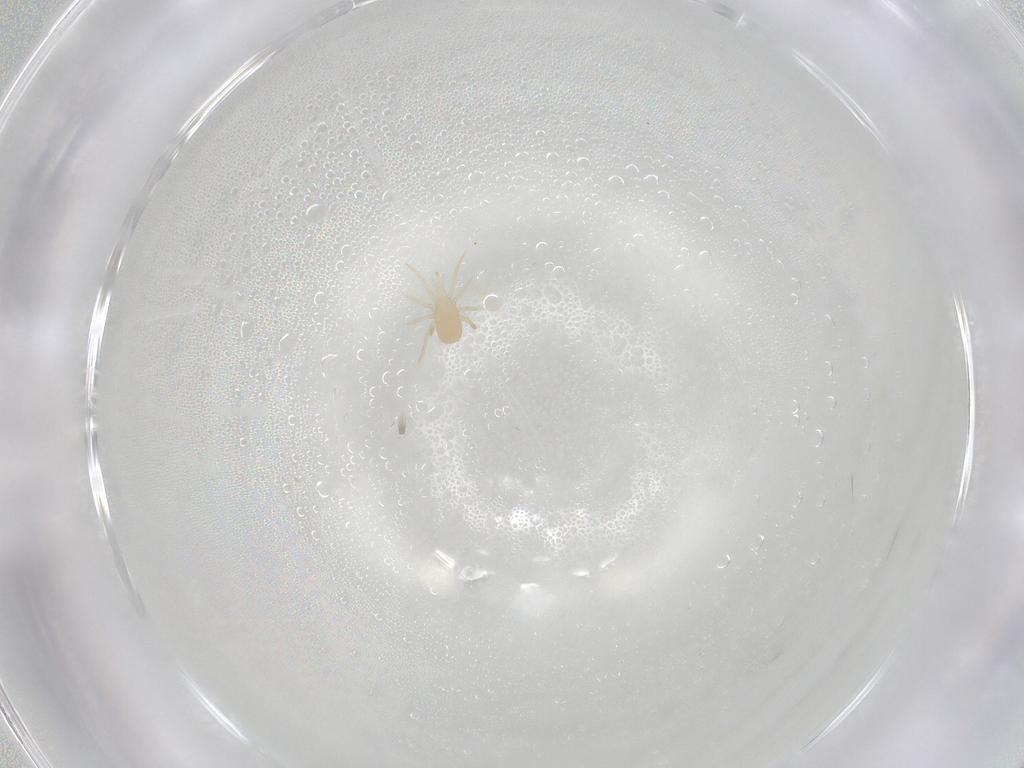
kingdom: Animalia
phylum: Arthropoda
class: Arachnida
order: Mesostigmata
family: Blattisociidae
